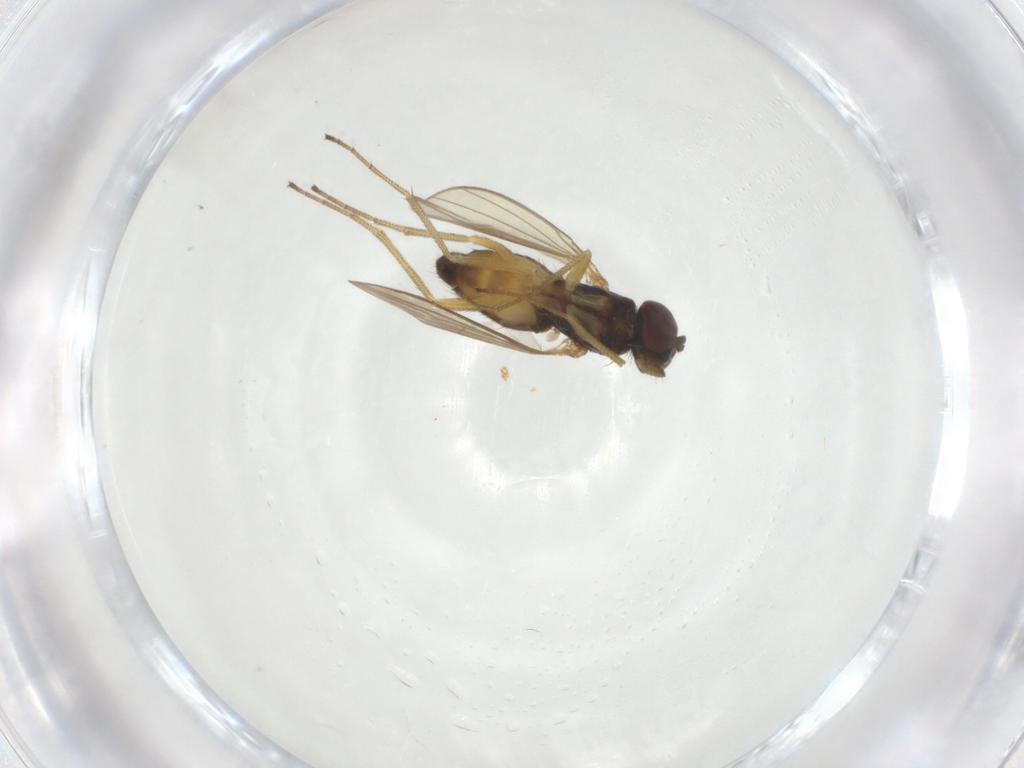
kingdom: Animalia
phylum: Arthropoda
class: Insecta
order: Diptera
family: Dolichopodidae
